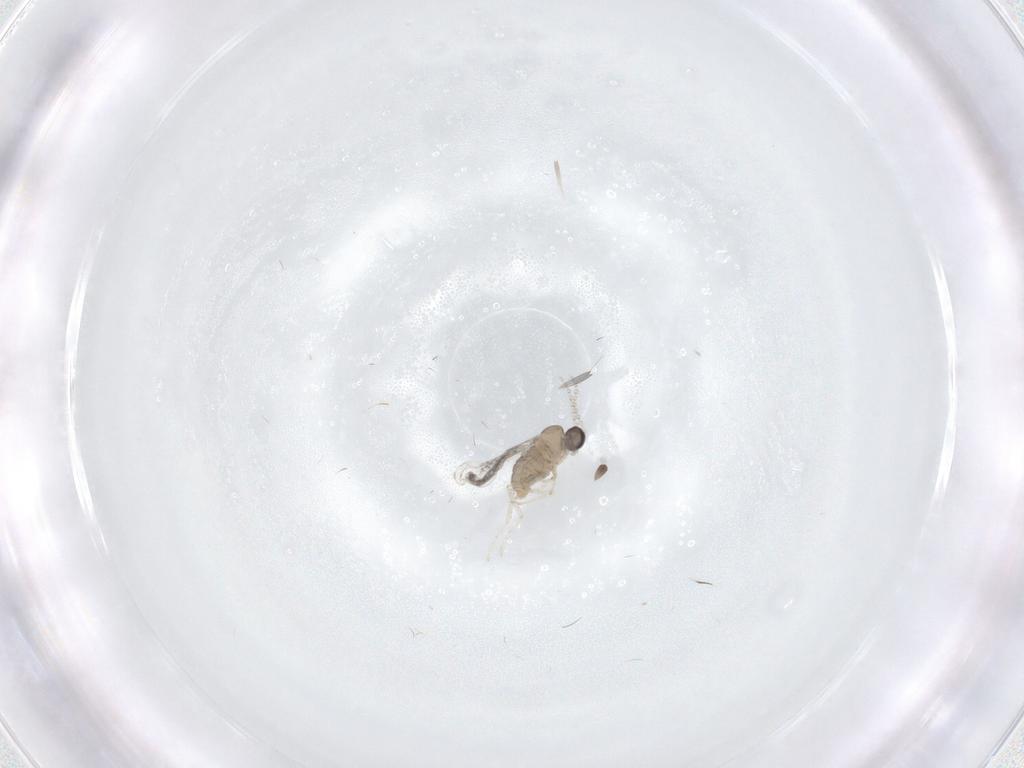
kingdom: Animalia
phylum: Arthropoda
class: Insecta
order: Diptera
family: Cecidomyiidae
